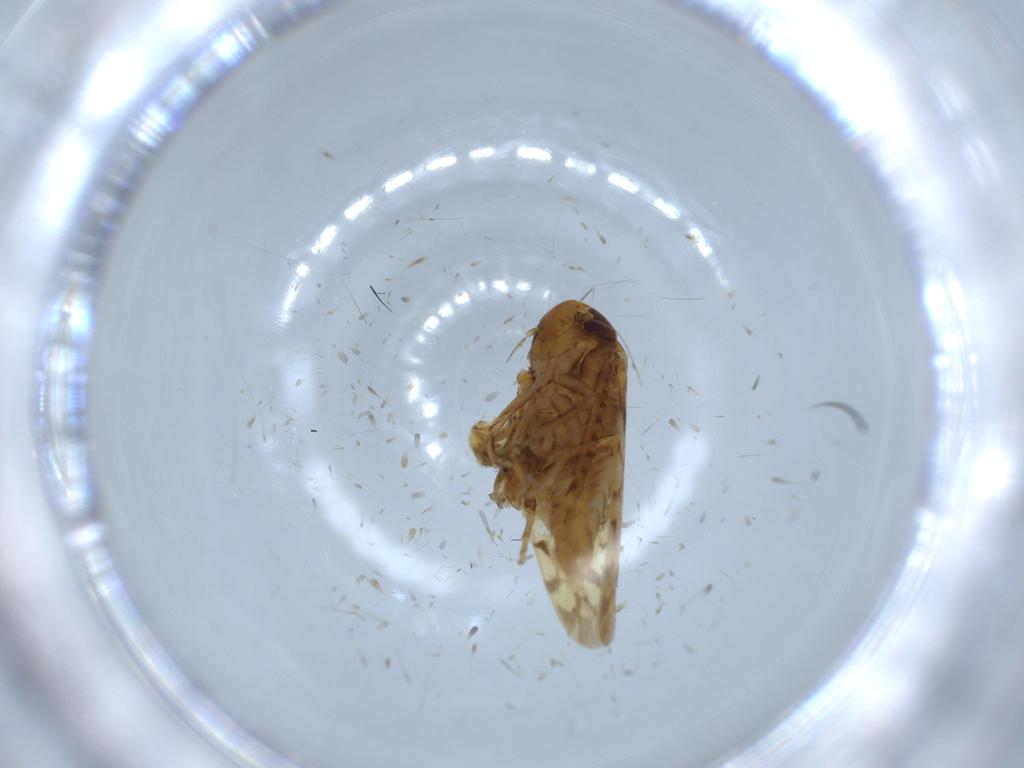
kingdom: Animalia
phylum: Arthropoda
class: Insecta
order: Hemiptera
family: Cicadellidae
